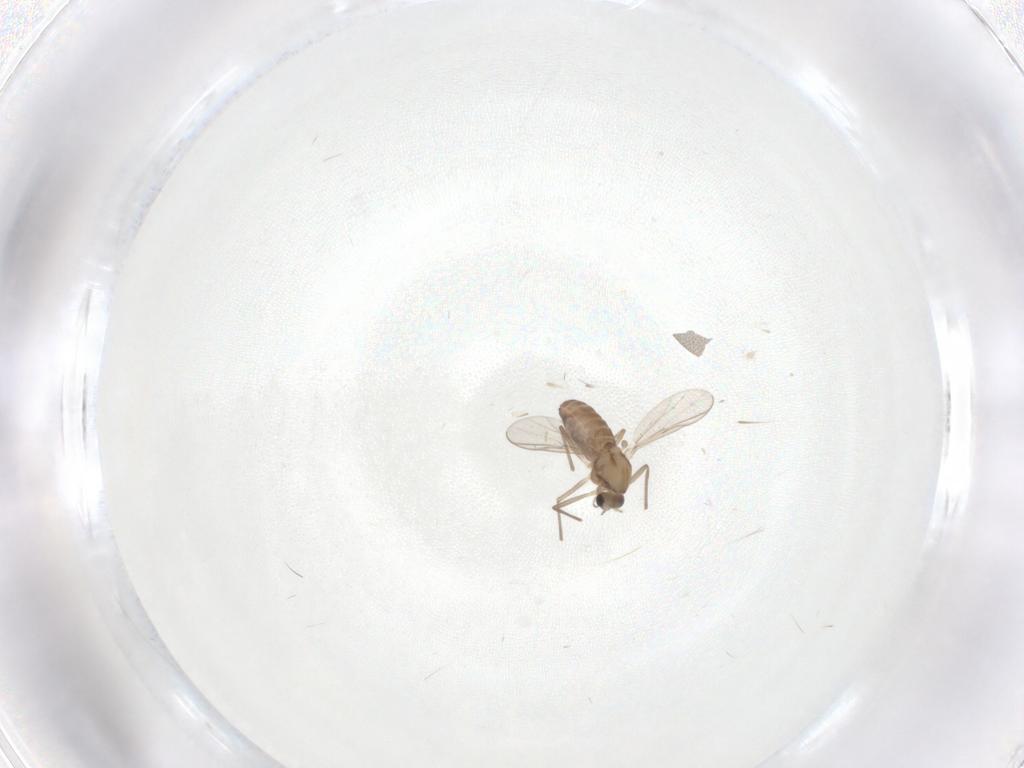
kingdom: Animalia
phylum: Arthropoda
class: Insecta
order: Diptera
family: Chironomidae
